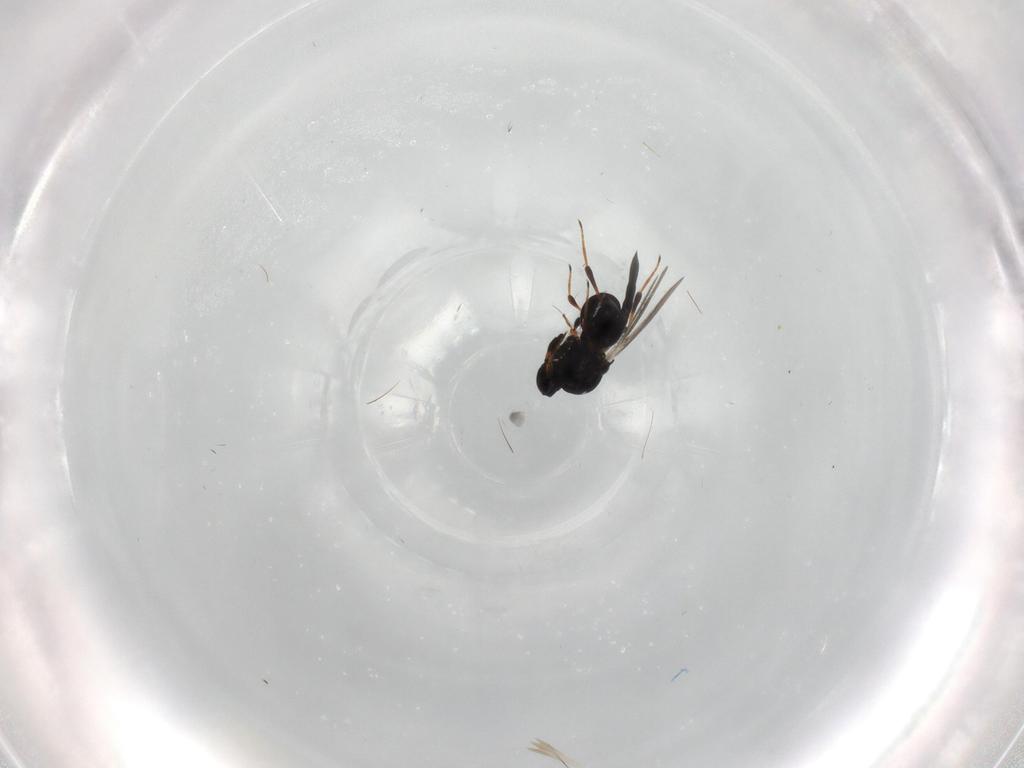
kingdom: Animalia
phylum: Arthropoda
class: Insecta
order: Hymenoptera
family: Platygastridae
